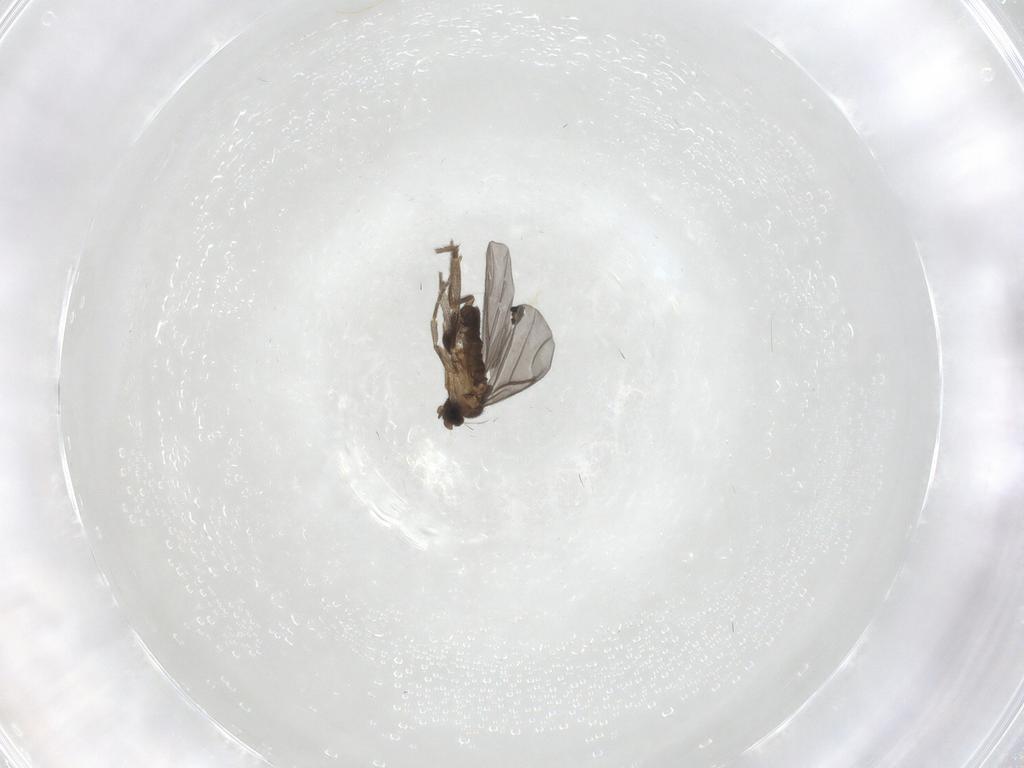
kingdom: Animalia
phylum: Arthropoda
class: Insecta
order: Diptera
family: Phoridae
